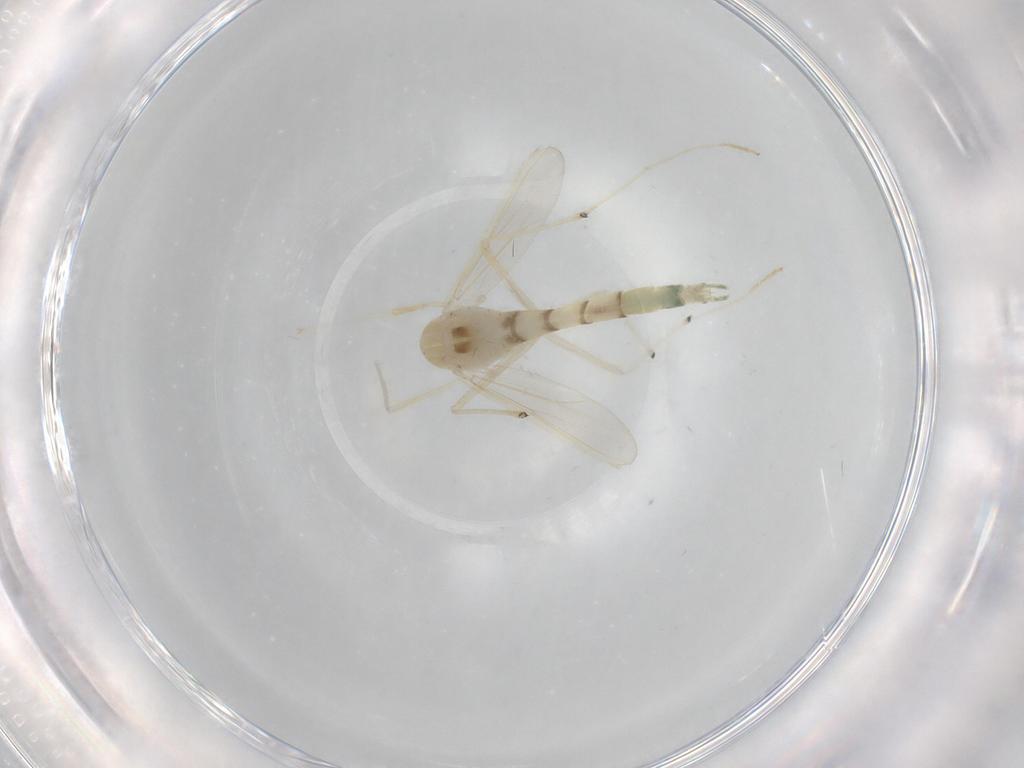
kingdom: Animalia
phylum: Arthropoda
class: Insecta
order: Diptera
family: Chironomidae
